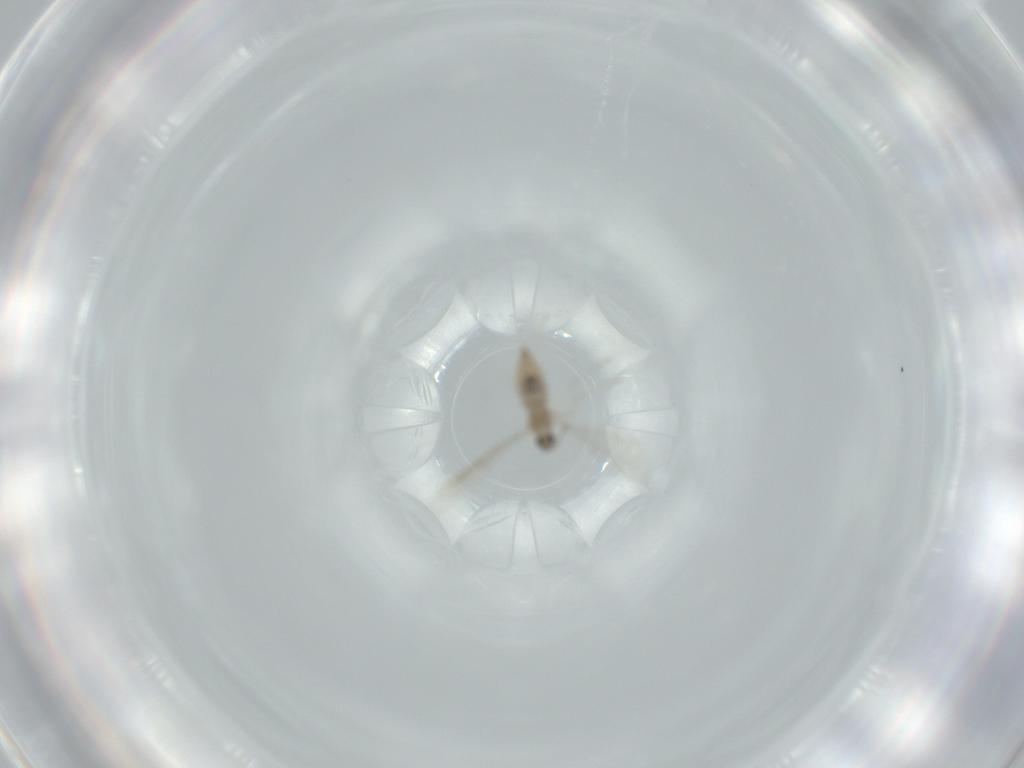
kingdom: Animalia
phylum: Arthropoda
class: Insecta
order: Diptera
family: Cecidomyiidae
